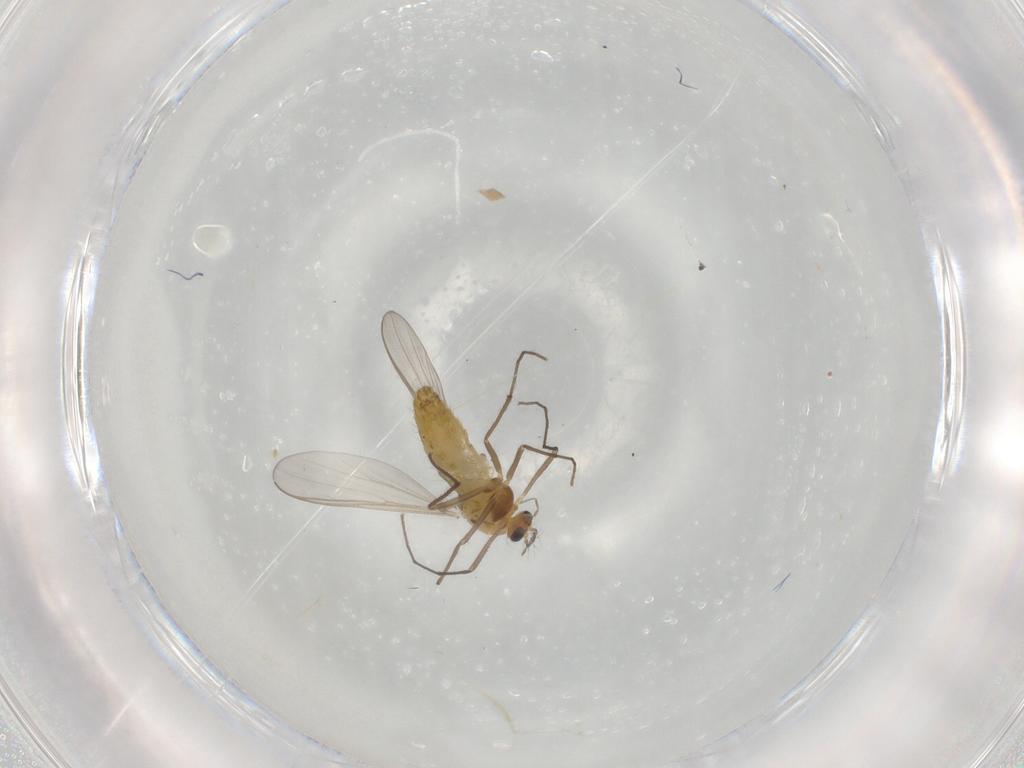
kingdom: Animalia
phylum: Arthropoda
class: Insecta
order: Diptera
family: Chironomidae
